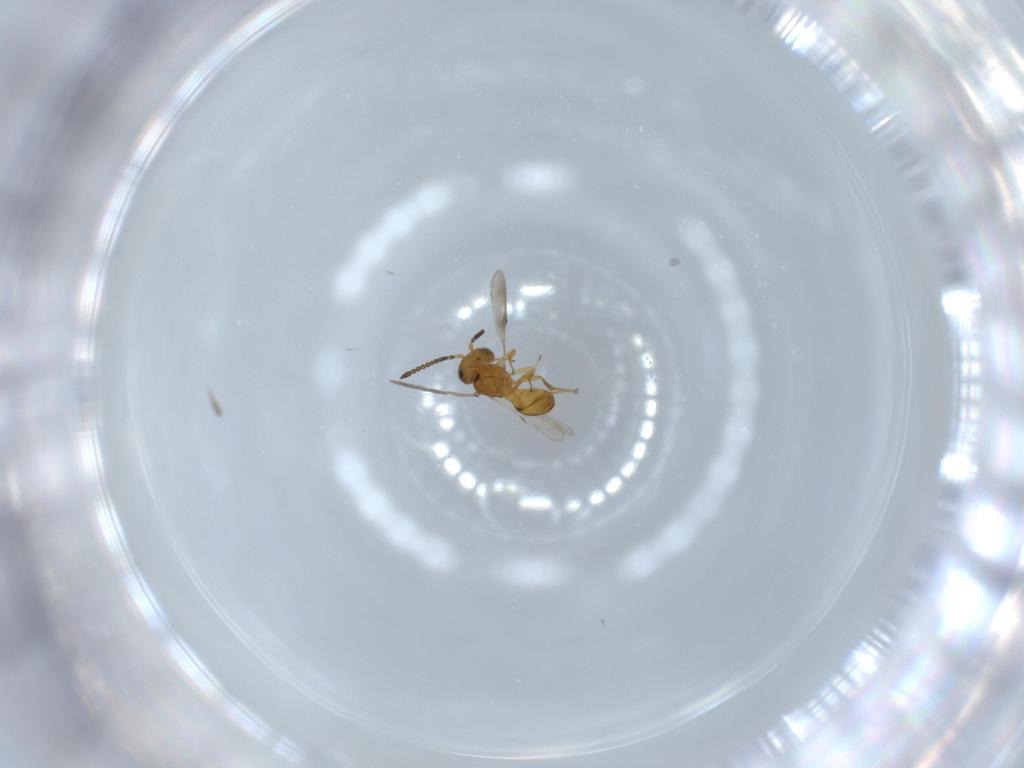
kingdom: Animalia
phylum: Arthropoda
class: Insecta
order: Hymenoptera
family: Scelionidae
